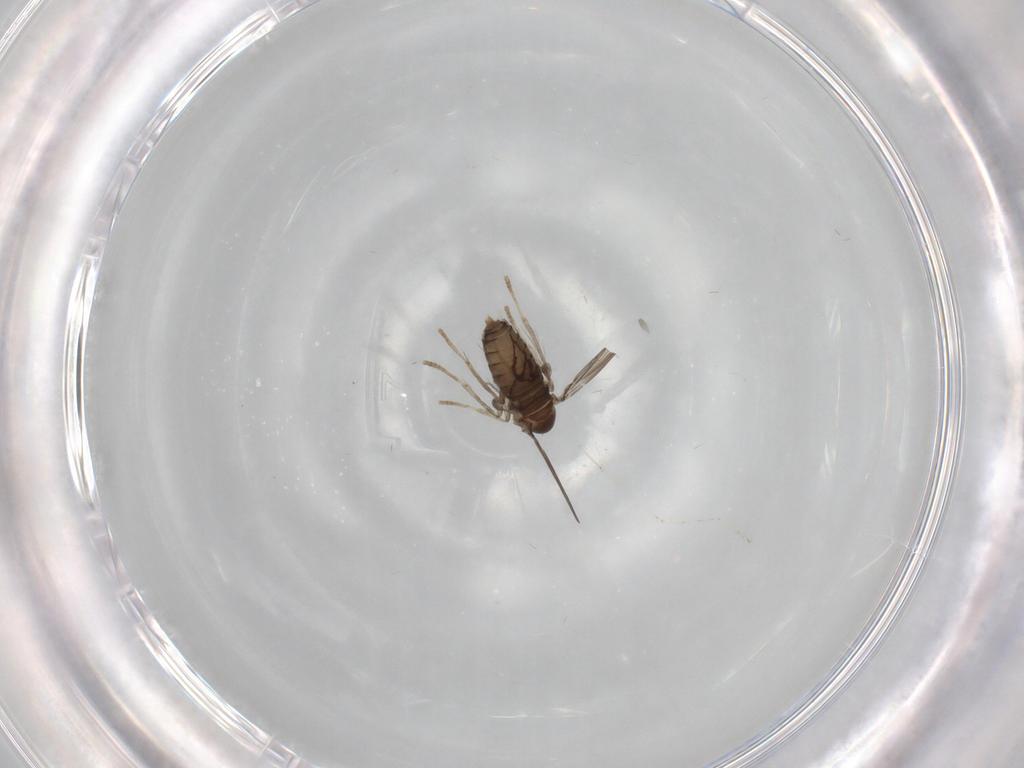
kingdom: Animalia
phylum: Arthropoda
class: Insecta
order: Diptera
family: Psychodidae
